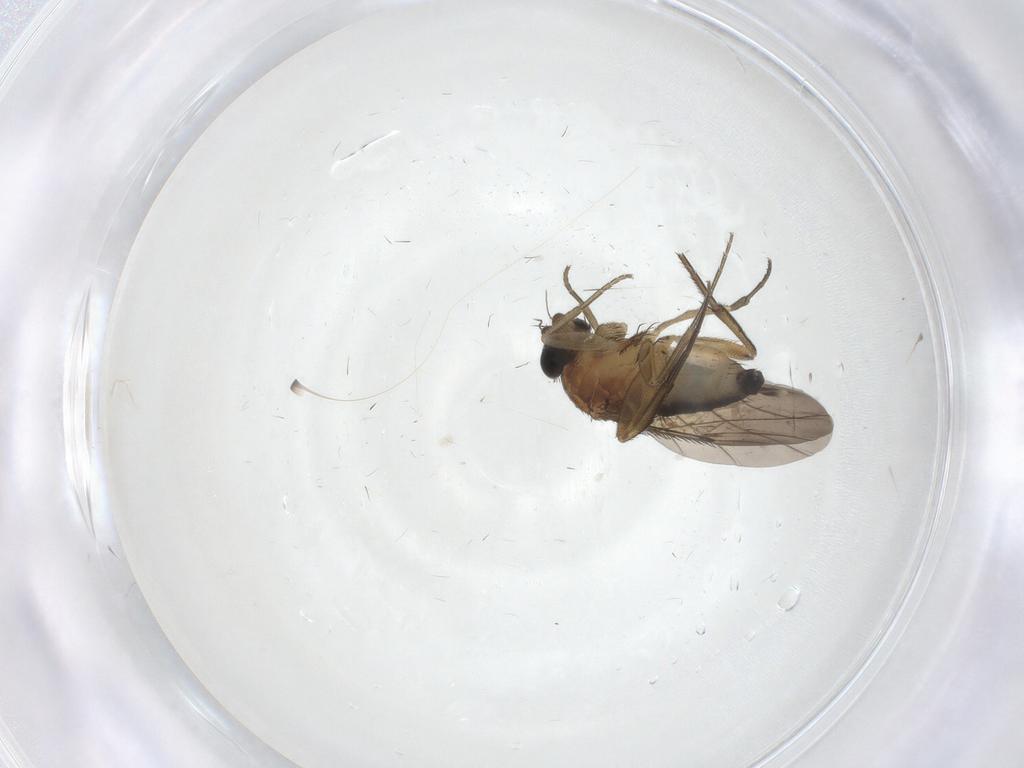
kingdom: Animalia
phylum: Arthropoda
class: Insecta
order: Diptera
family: Phoridae
